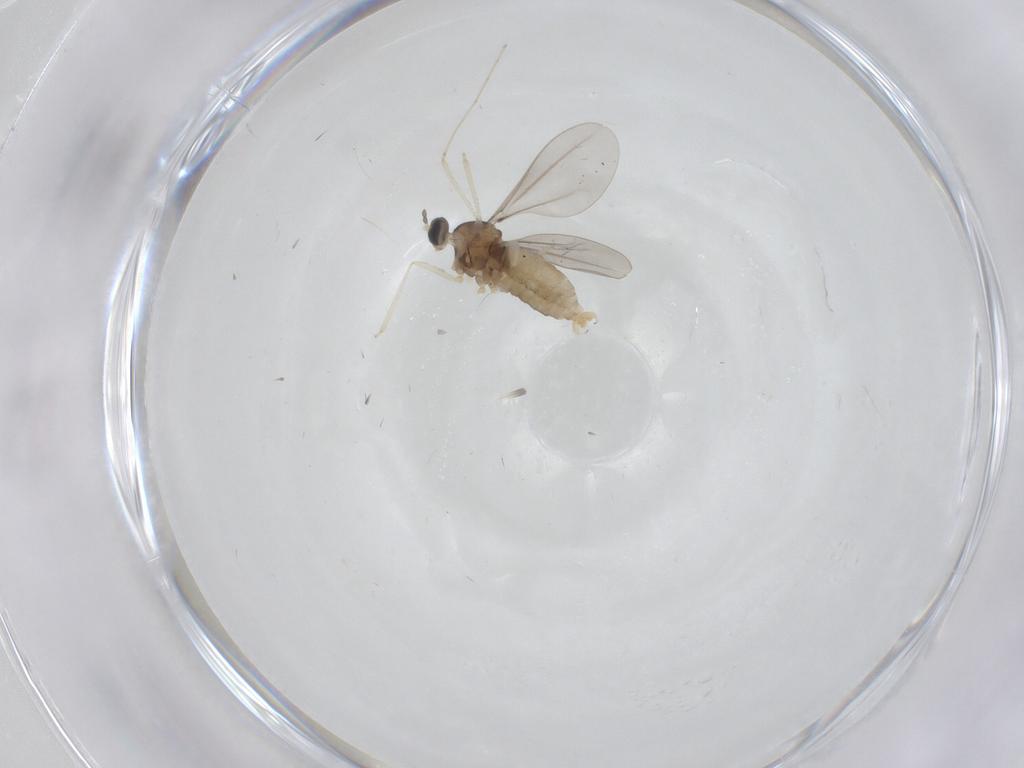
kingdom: Animalia
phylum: Arthropoda
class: Insecta
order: Diptera
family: Cecidomyiidae
